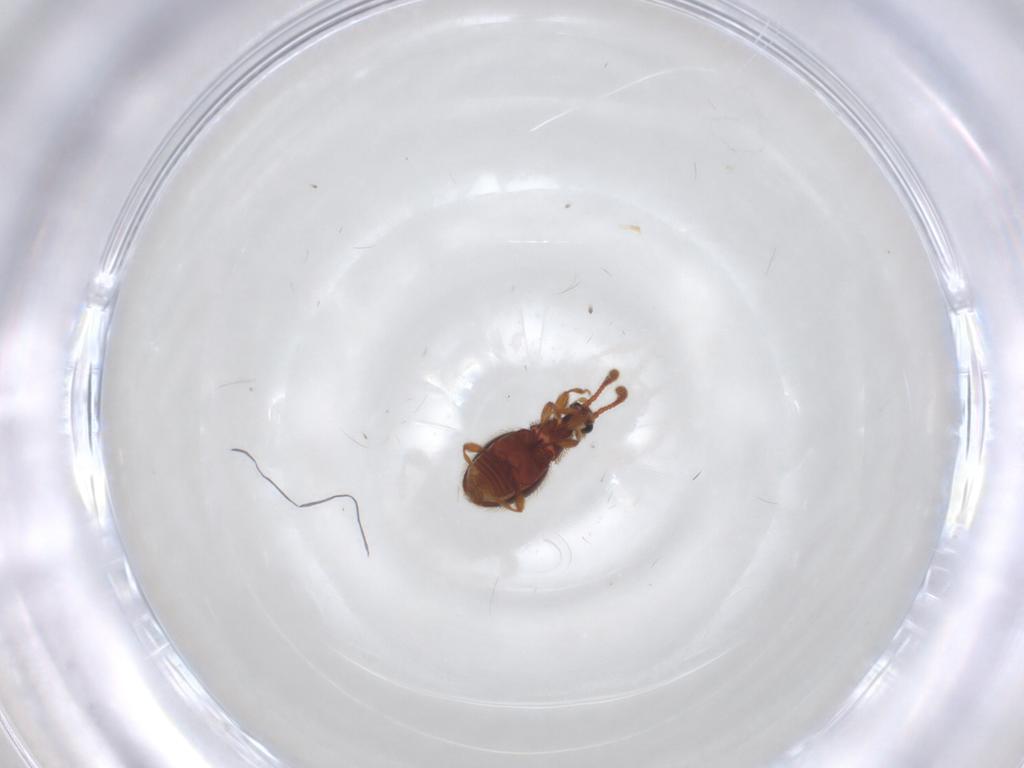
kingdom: Animalia
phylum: Arthropoda
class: Insecta
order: Coleoptera
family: Staphylinidae
